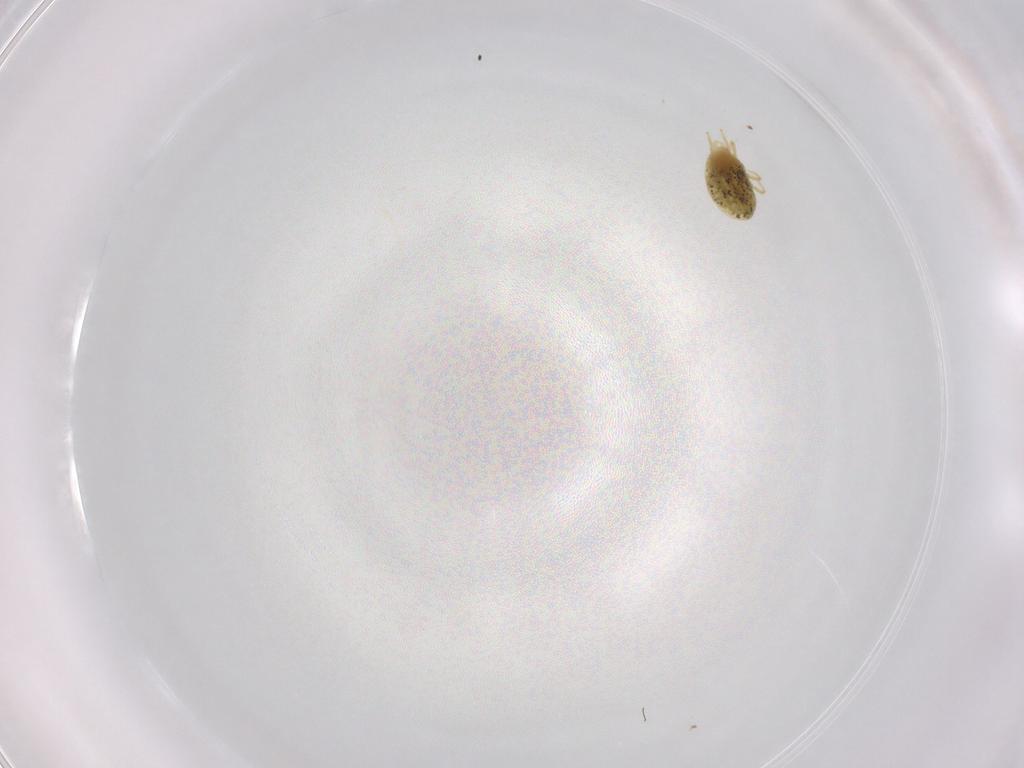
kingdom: Animalia
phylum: Arthropoda
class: Arachnida
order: Trombidiformes
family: Tetranychidae
